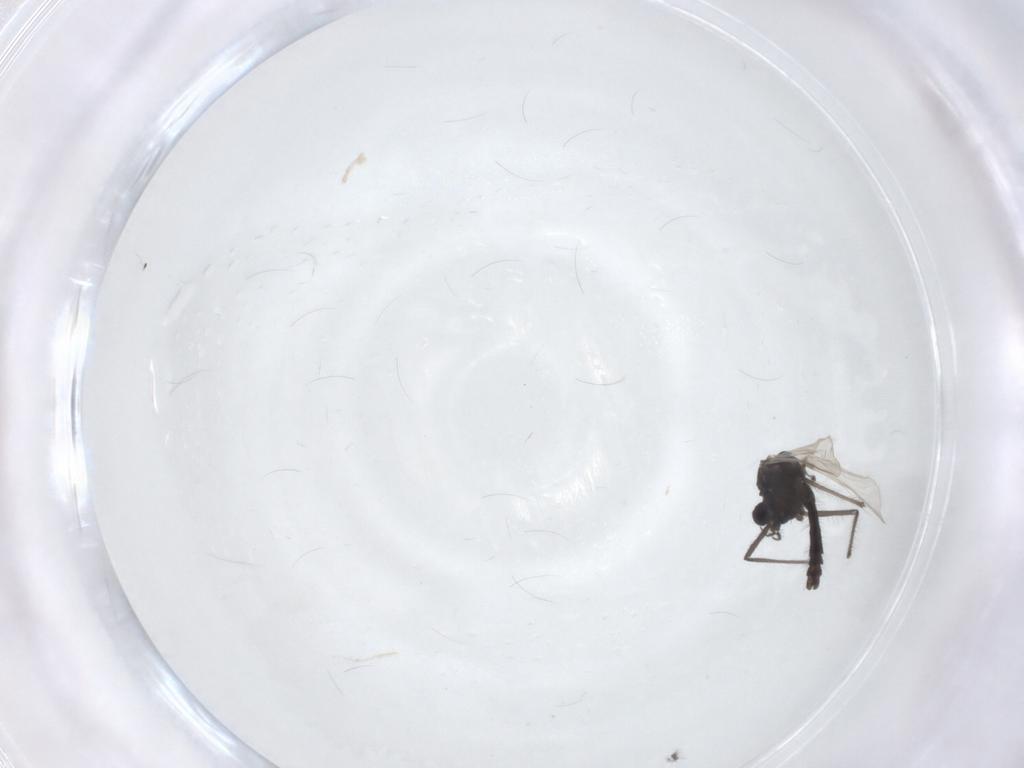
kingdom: Animalia
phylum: Arthropoda
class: Insecta
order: Diptera
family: Chironomidae
